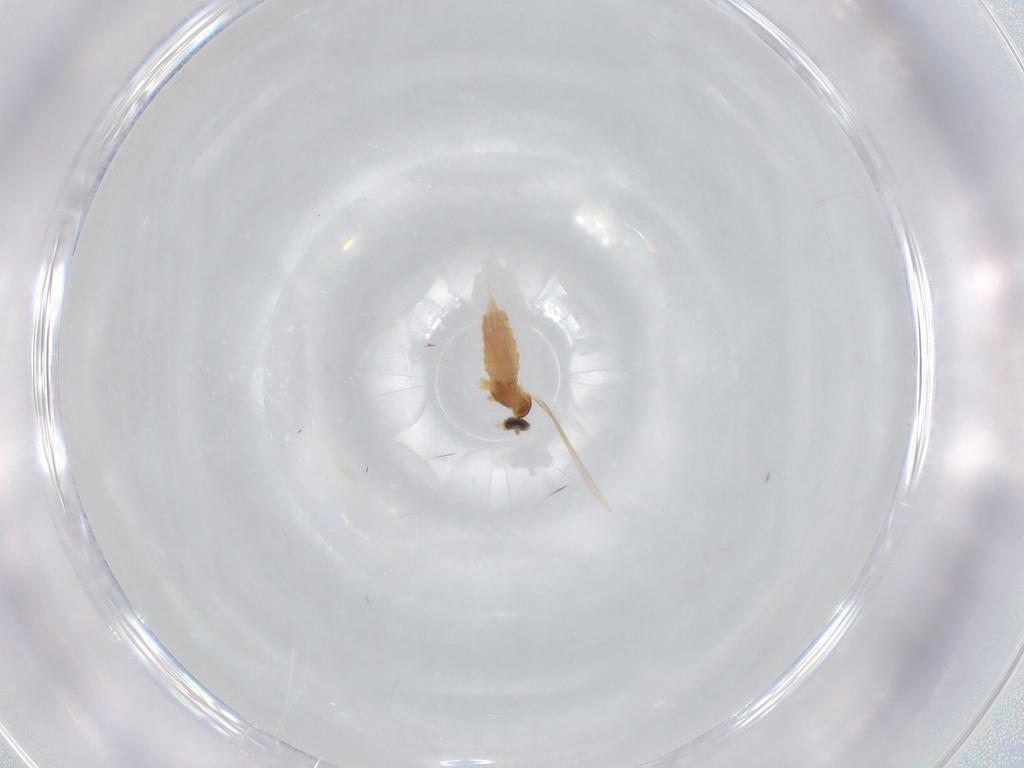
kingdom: Animalia
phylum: Arthropoda
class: Insecta
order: Diptera
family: Cecidomyiidae
